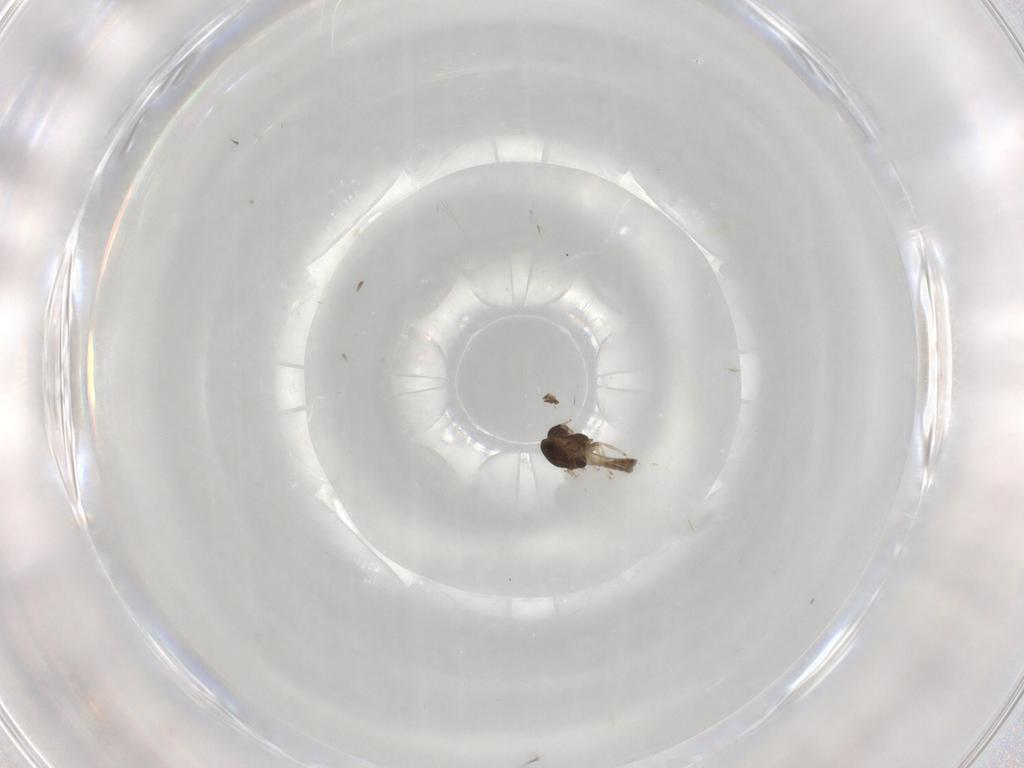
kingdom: Animalia
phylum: Arthropoda
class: Insecta
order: Diptera
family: Chironomidae
